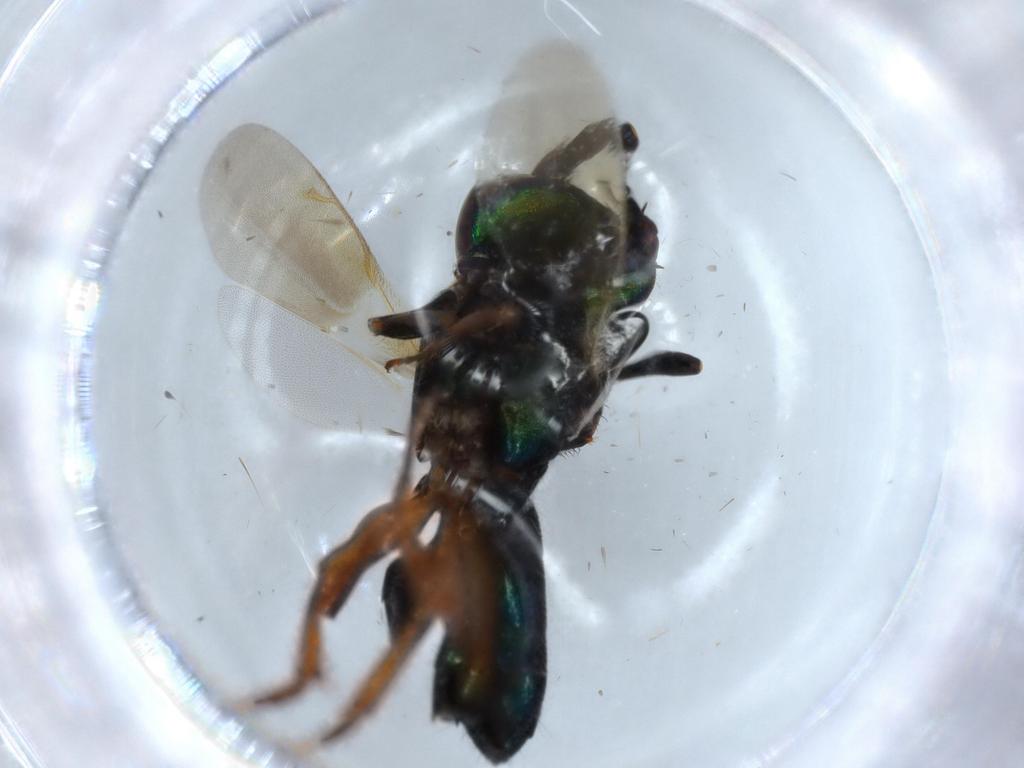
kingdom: Animalia
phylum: Arthropoda
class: Insecta
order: Hymenoptera
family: Eupelmidae
